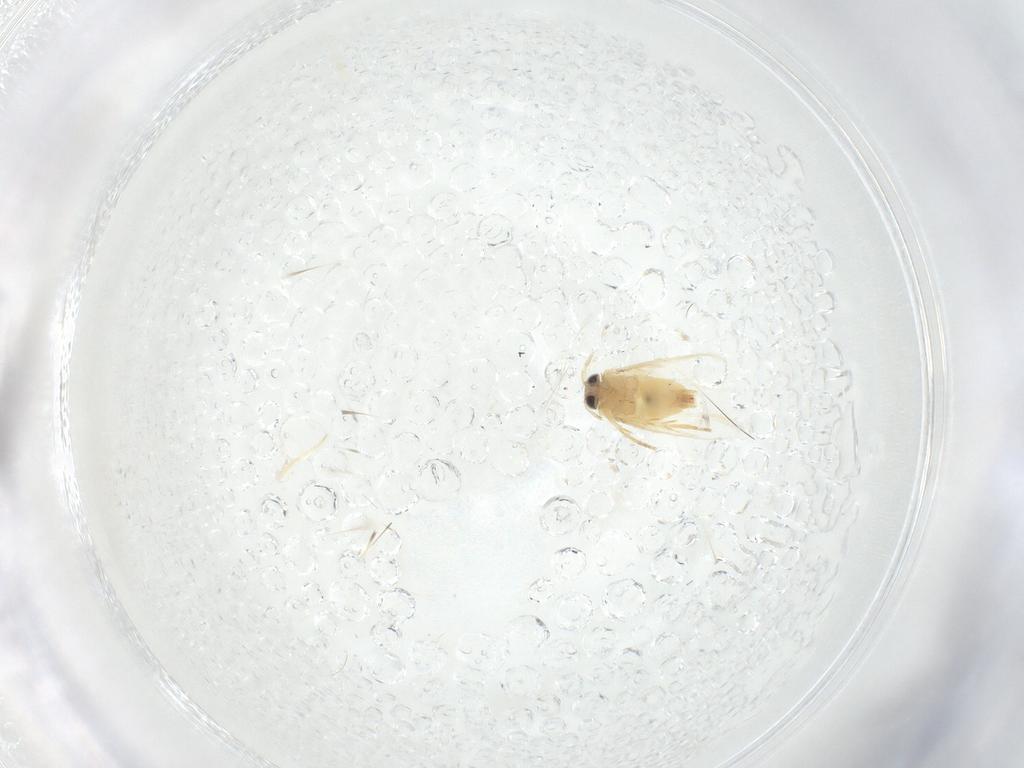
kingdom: Animalia
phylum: Arthropoda
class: Insecta
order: Lepidoptera
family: Crambidae
